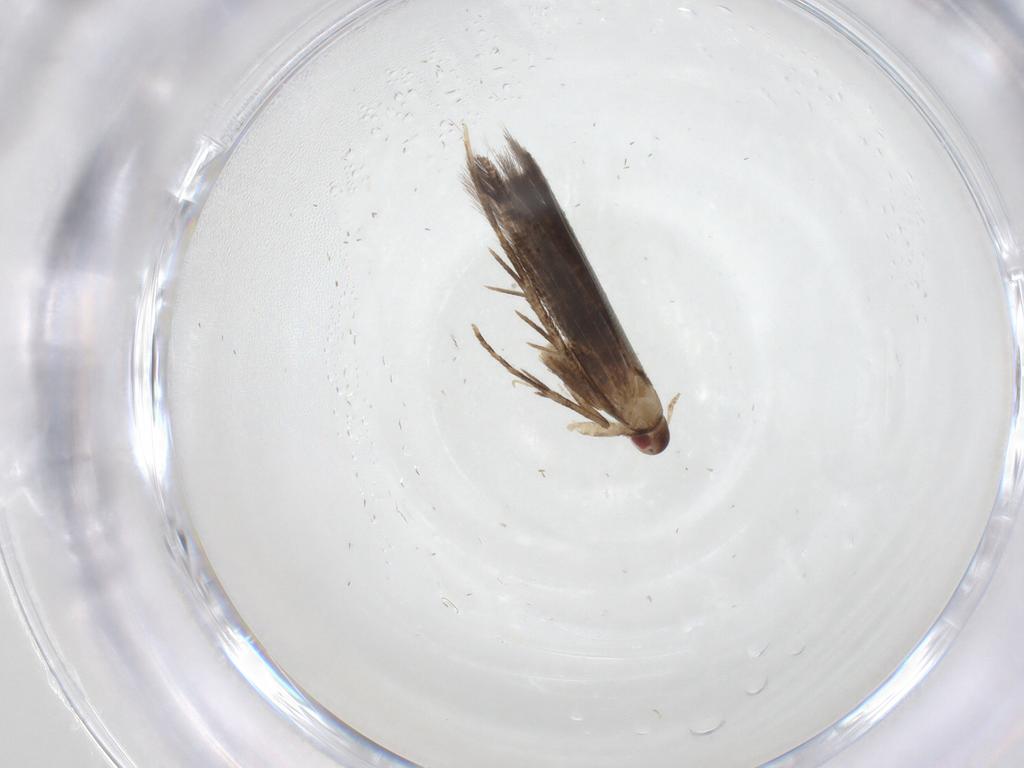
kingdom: Animalia
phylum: Arthropoda
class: Insecta
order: Lepidoptera
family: Cosmopterigidae
